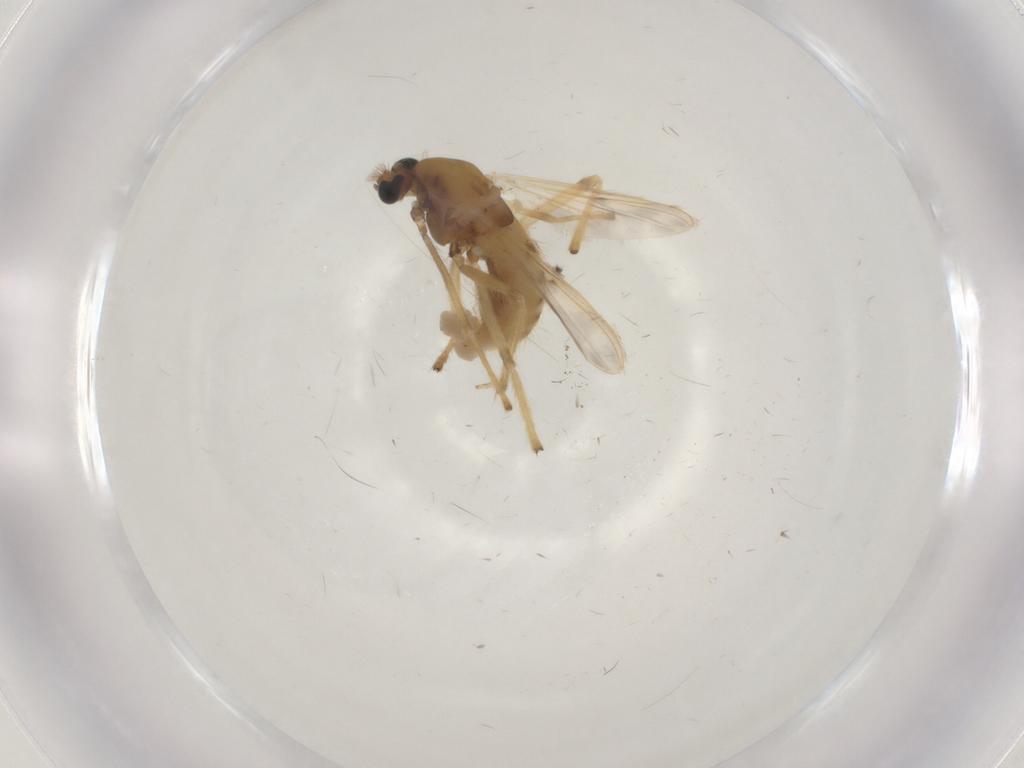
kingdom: Animalia
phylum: Arthropoda
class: Insecta
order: Diptera
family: Chironomidae
